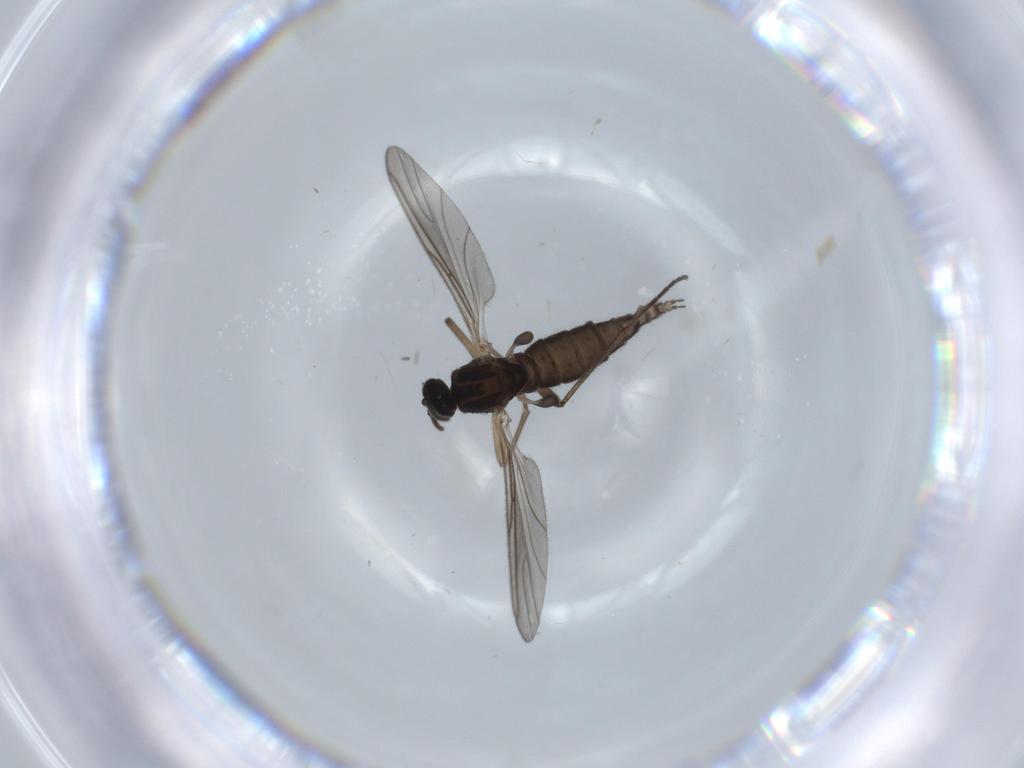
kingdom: Animalia
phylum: Arthropoda
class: Insecta
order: Diptera
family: Sciaridae
